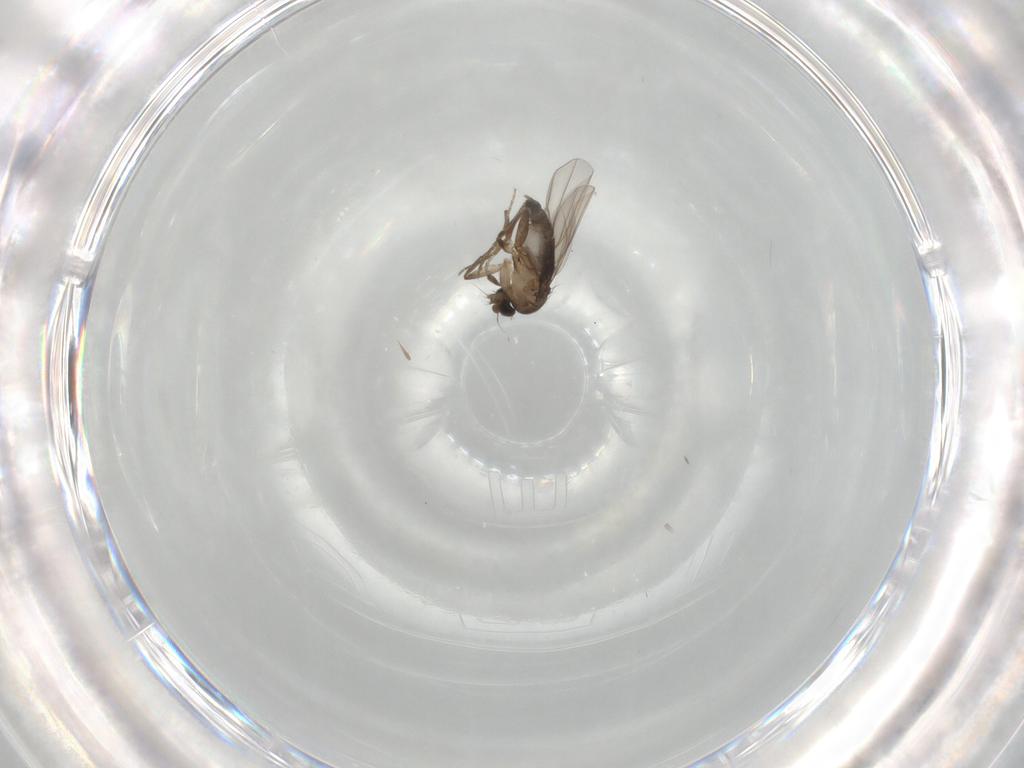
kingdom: Animalia
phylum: Arthropoda
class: Insecta
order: Diptera
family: Phoridae
